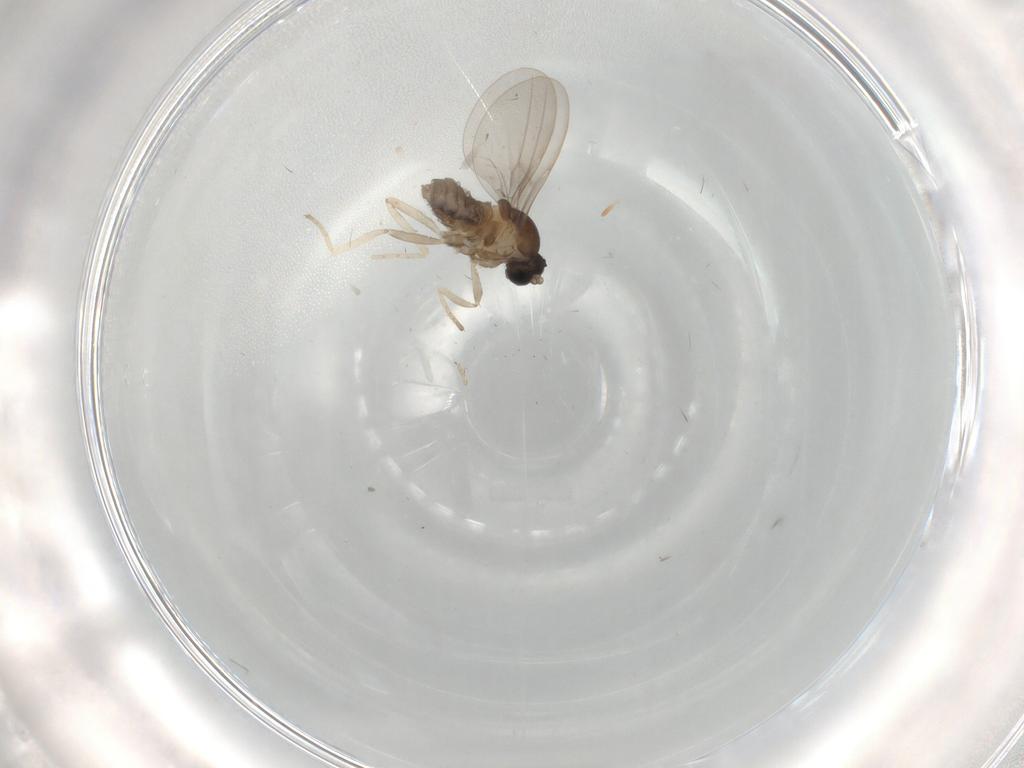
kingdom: Animalia
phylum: Arthropoda
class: Insecta
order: Diptera
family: Cecidomyiidae
